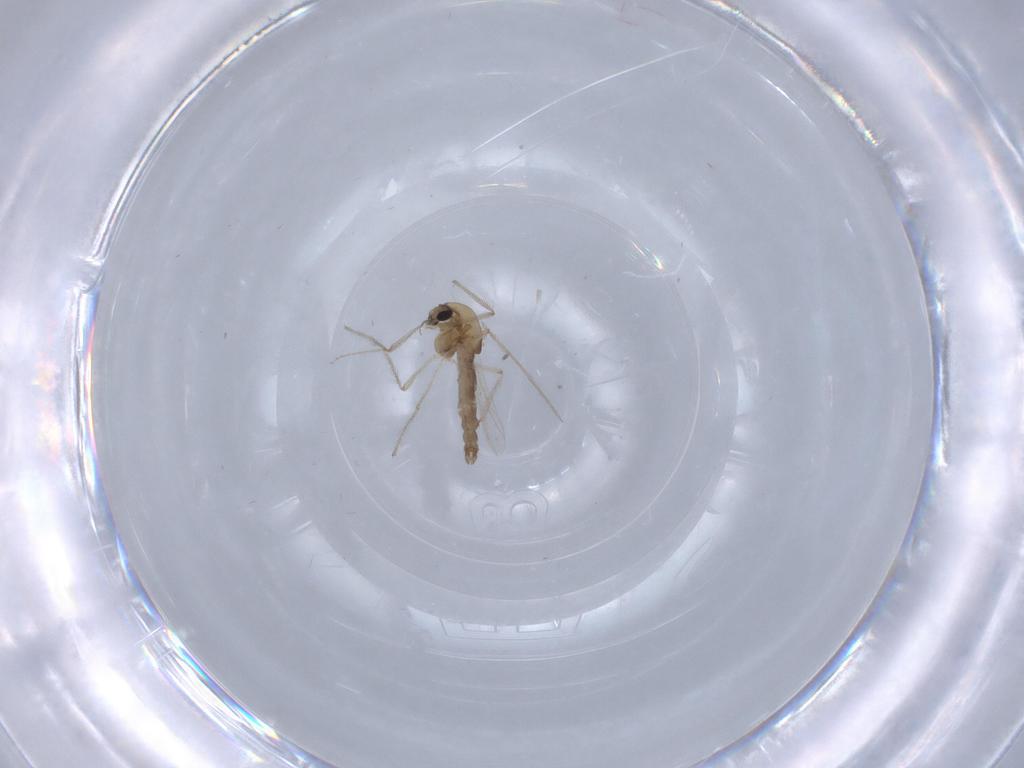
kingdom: Animalia
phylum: Arthropoda
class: Insecta
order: Diptera
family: Chironomidae
